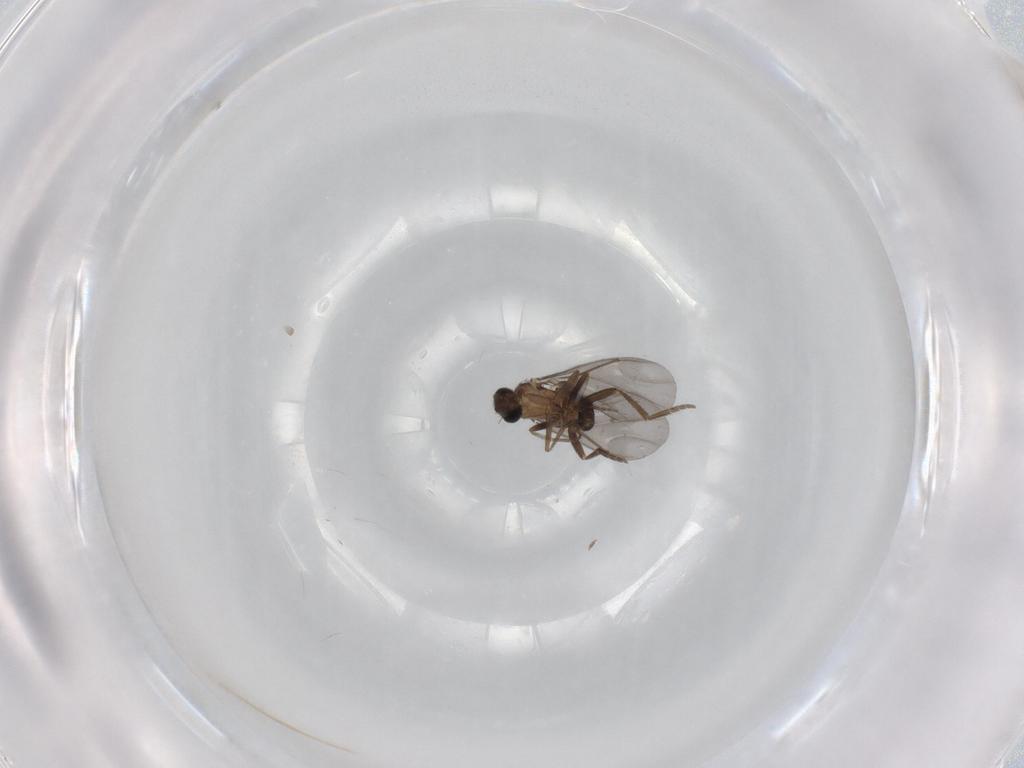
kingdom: Animalia
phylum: Arthropoda
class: Insecta
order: Diptera
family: Phoridae
